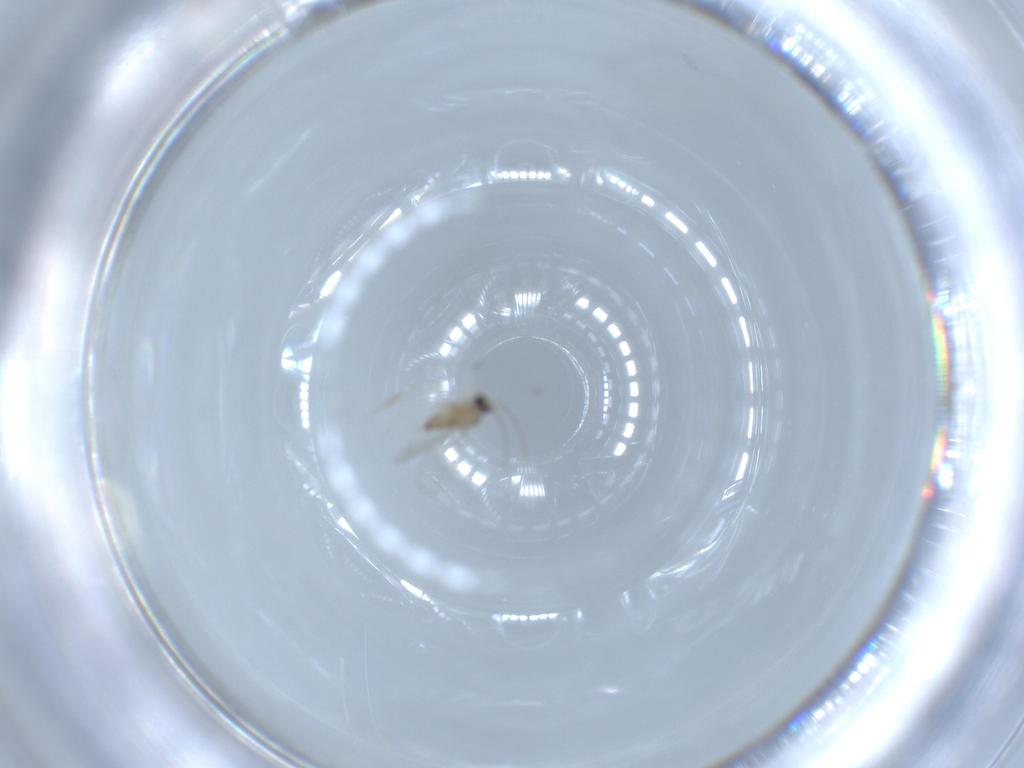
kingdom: Animalia
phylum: Arthropoda
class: Insecta
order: Diptera
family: Cecidomyiidae
